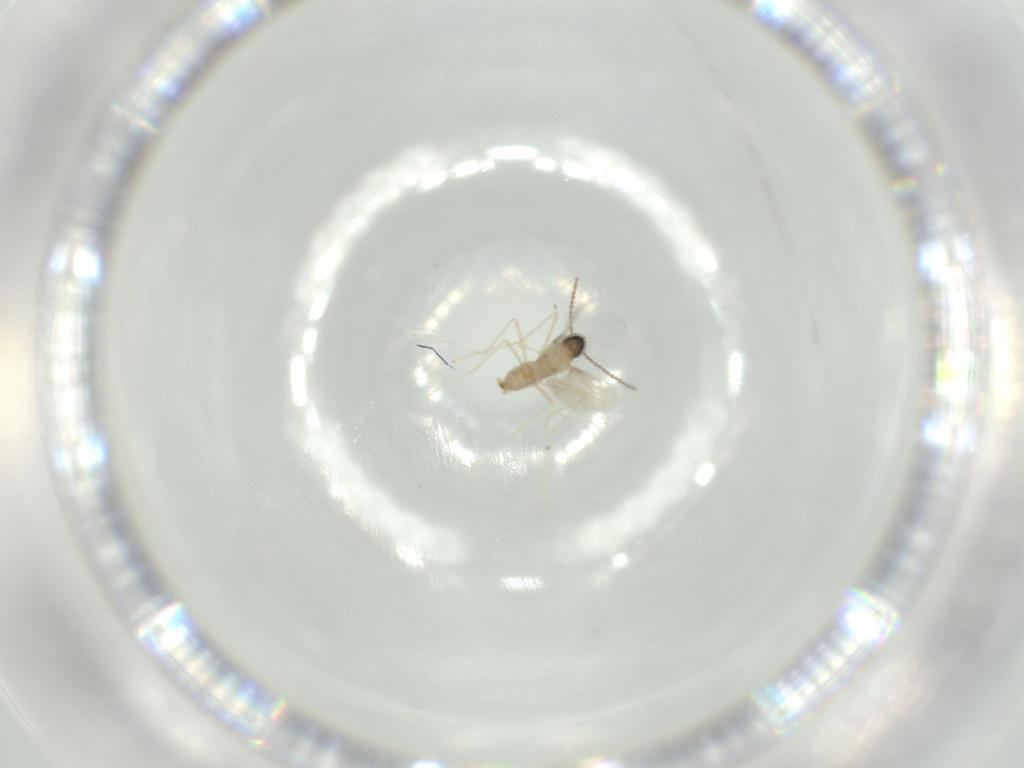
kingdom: Animalia
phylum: Arthropoda
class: Insecta
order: Diptera
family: Cecidomyiidae
